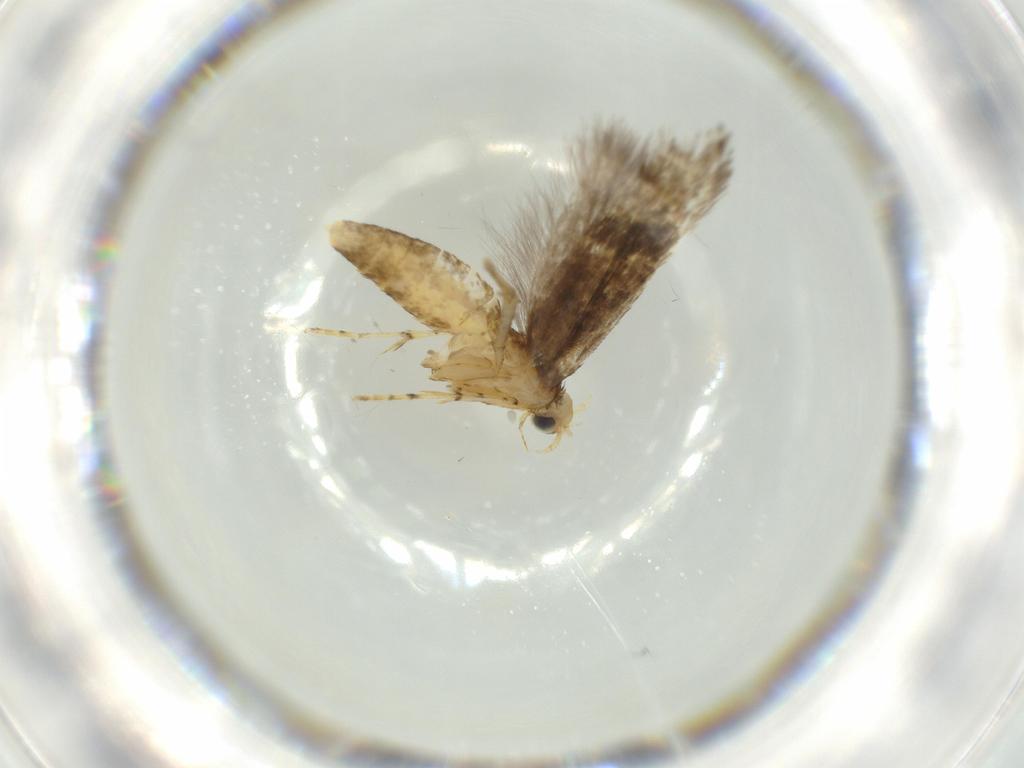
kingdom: Animalia
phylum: Arthropoda
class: Insecta
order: Lepidoptera
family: Argyresthiidae
